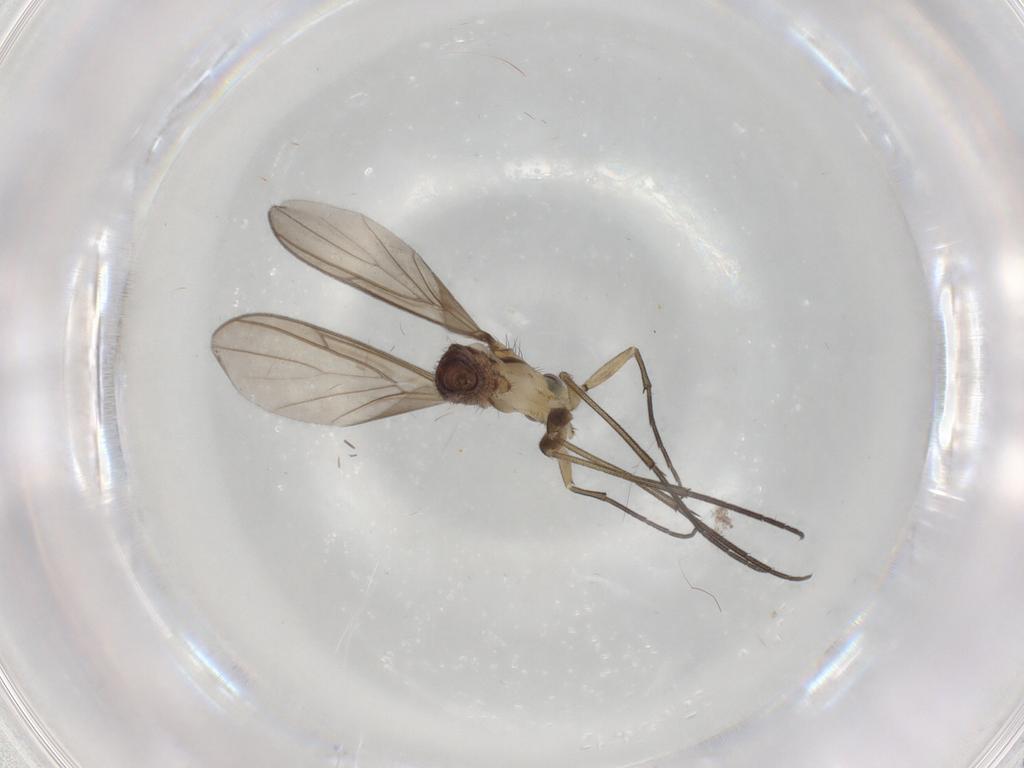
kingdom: Animalia
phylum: Arthropoda
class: Insecta
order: Diptera
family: Keroplatidae
